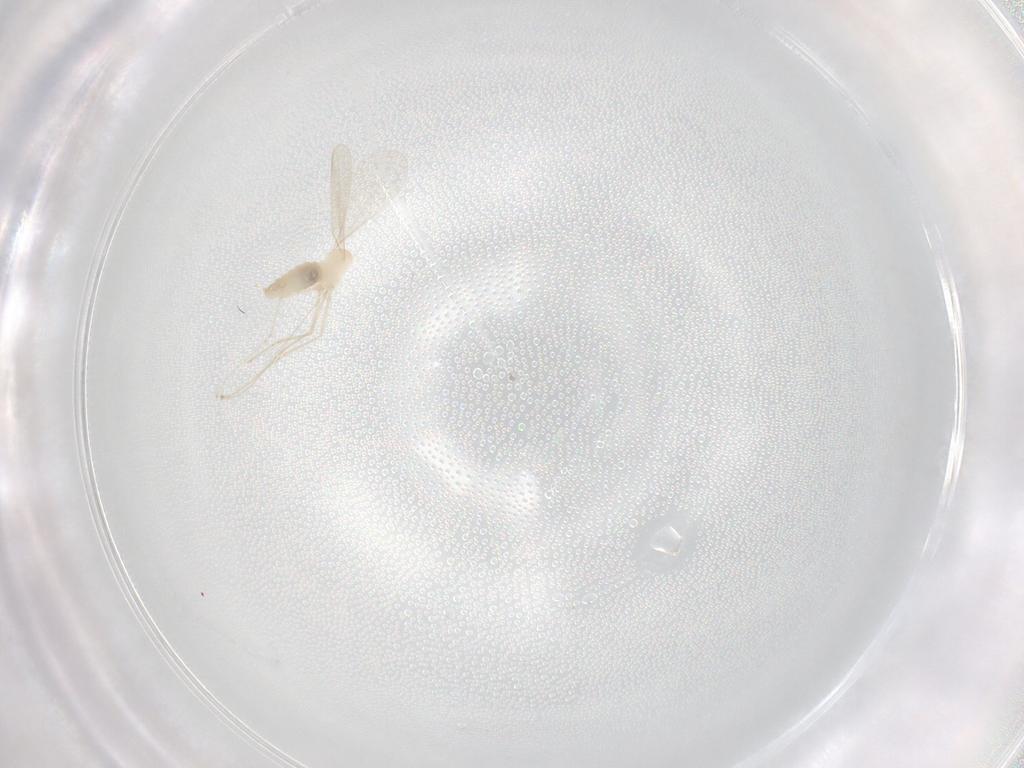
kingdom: Animalia
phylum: Arthropoda
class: Insecta
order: Diptera
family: Micropezidae
